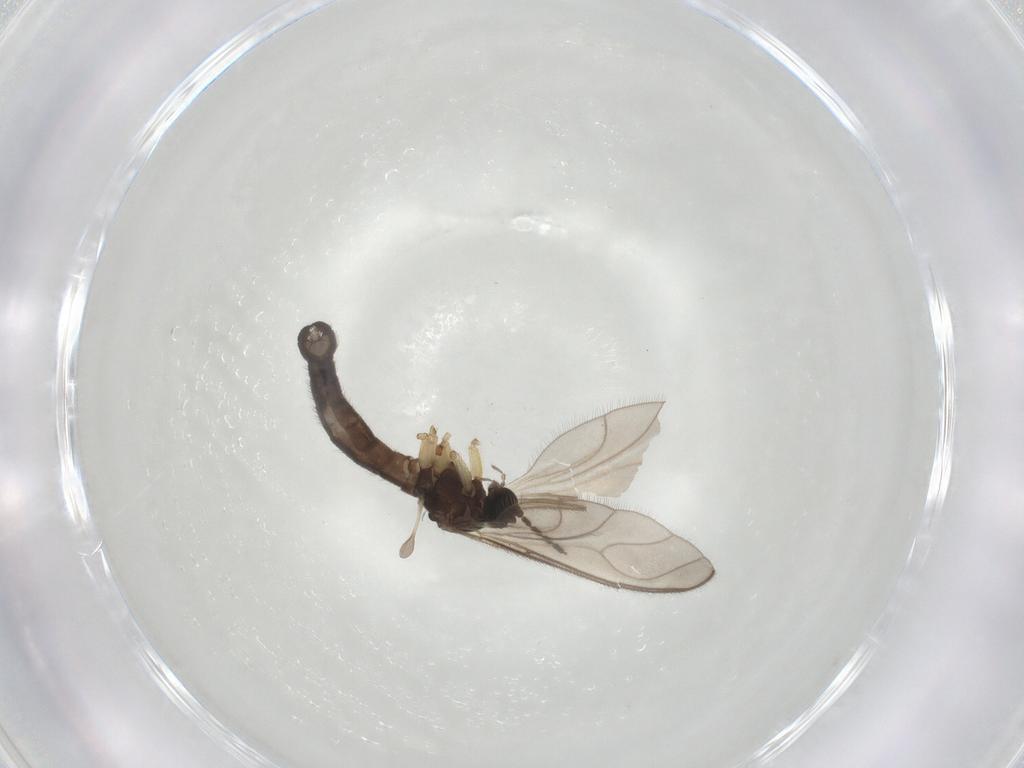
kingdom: Animalia
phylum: Arthropoda
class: Insecta
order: Diptera
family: Sciaridae
